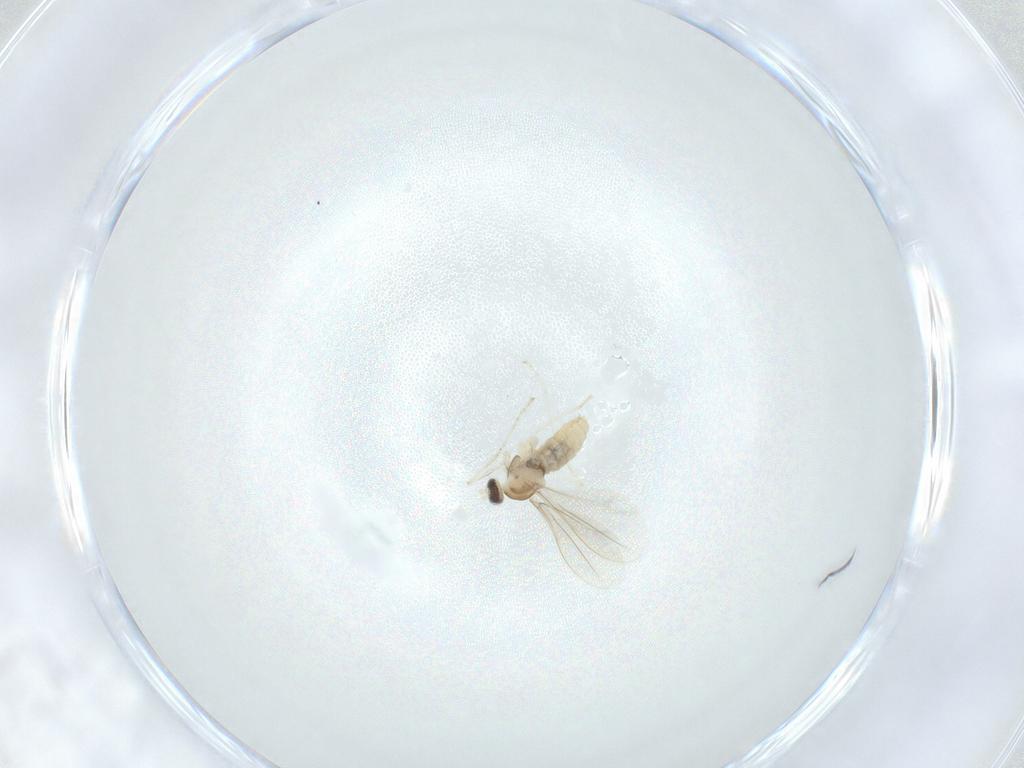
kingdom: Animalia
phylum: Arthropoda
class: Insecta
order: Diptera
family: Cecidomyiidae
